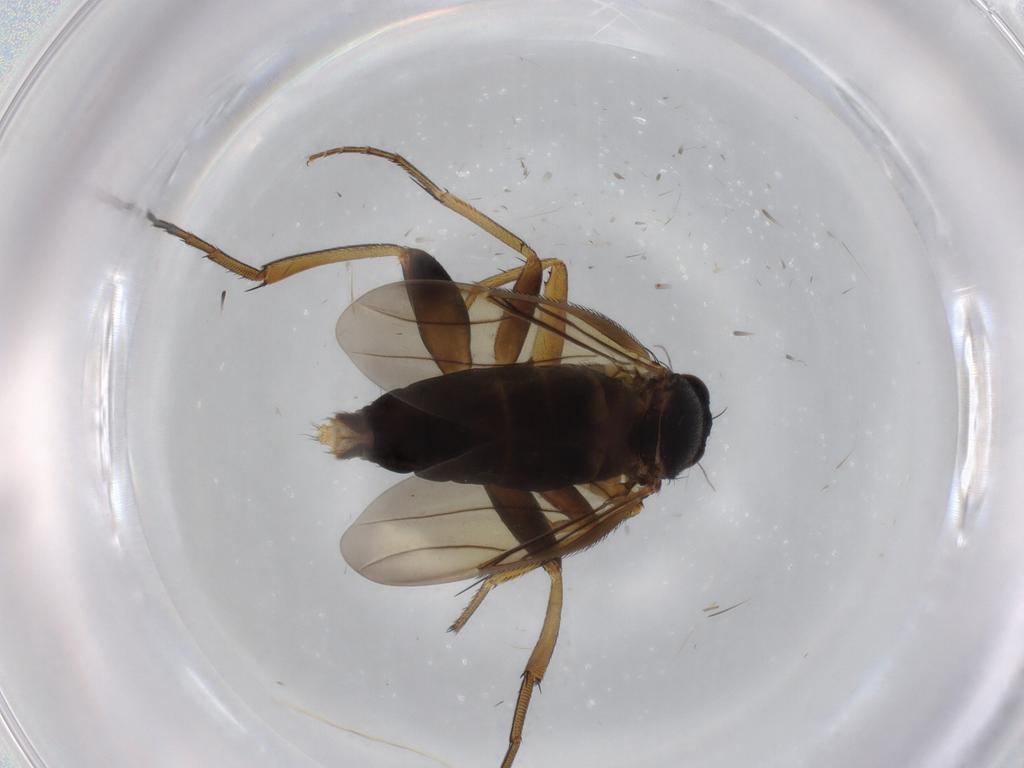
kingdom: Animalia
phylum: Arthropoda
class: Insecta
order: Diptera
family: Phoridae
